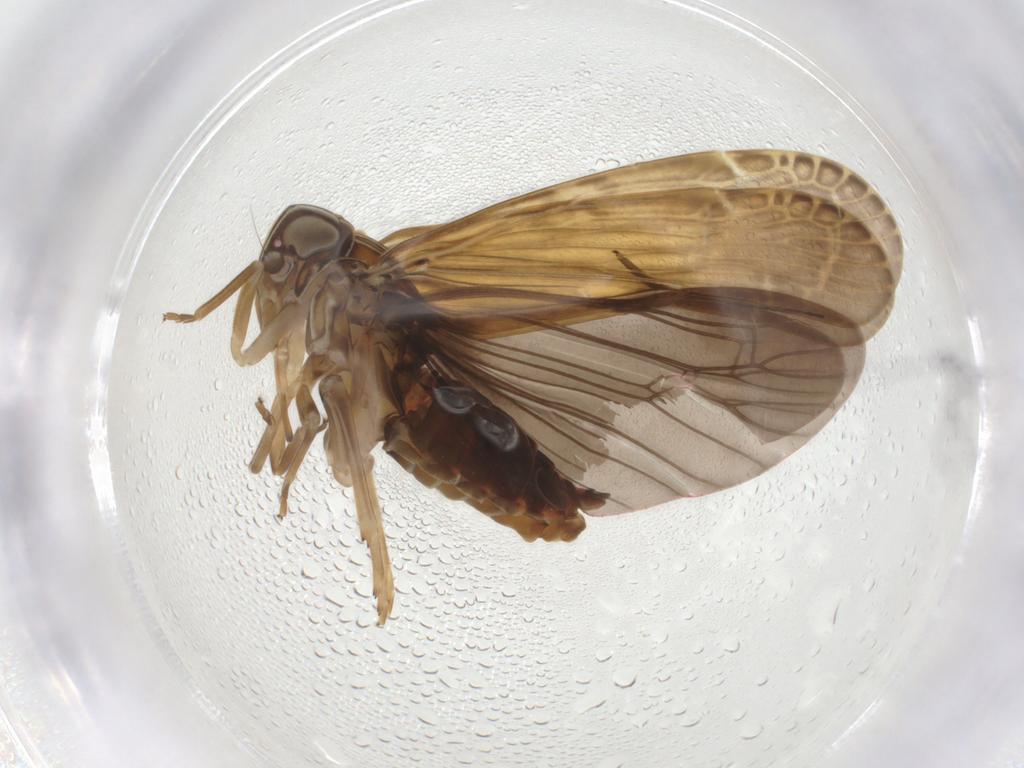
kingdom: Animalia
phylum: Arthropoda
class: Insecta
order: Hemiptera
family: Achilidae
